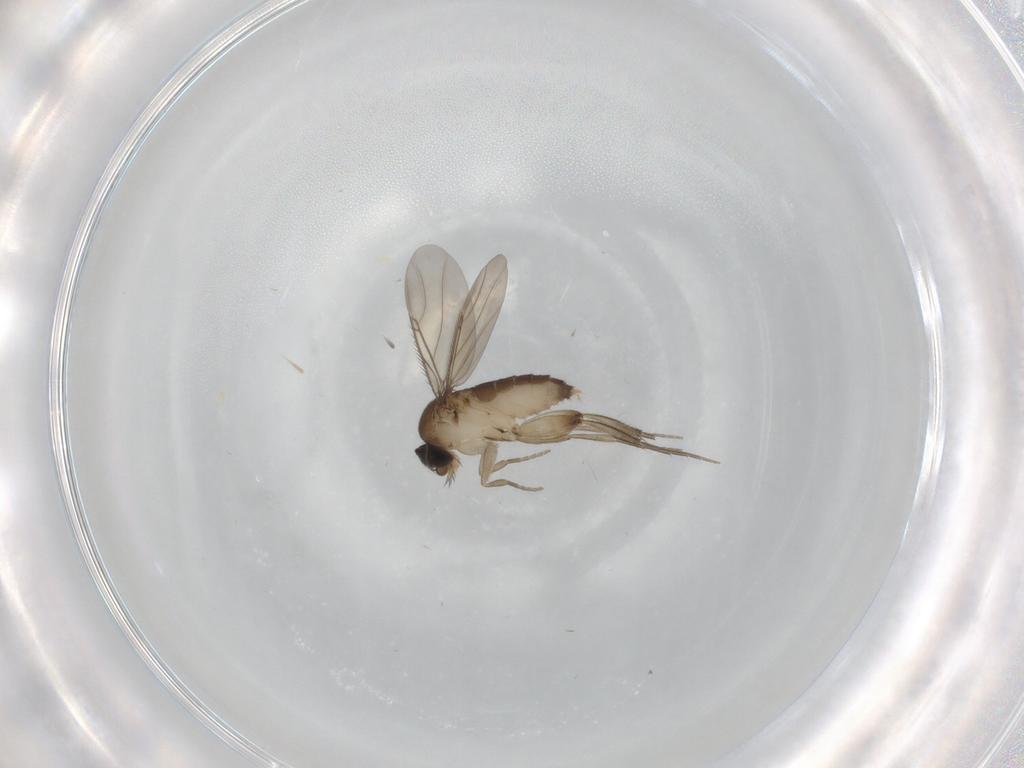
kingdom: Animalia
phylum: Arthropoda
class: Insecta
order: Diptera
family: Phoridae
